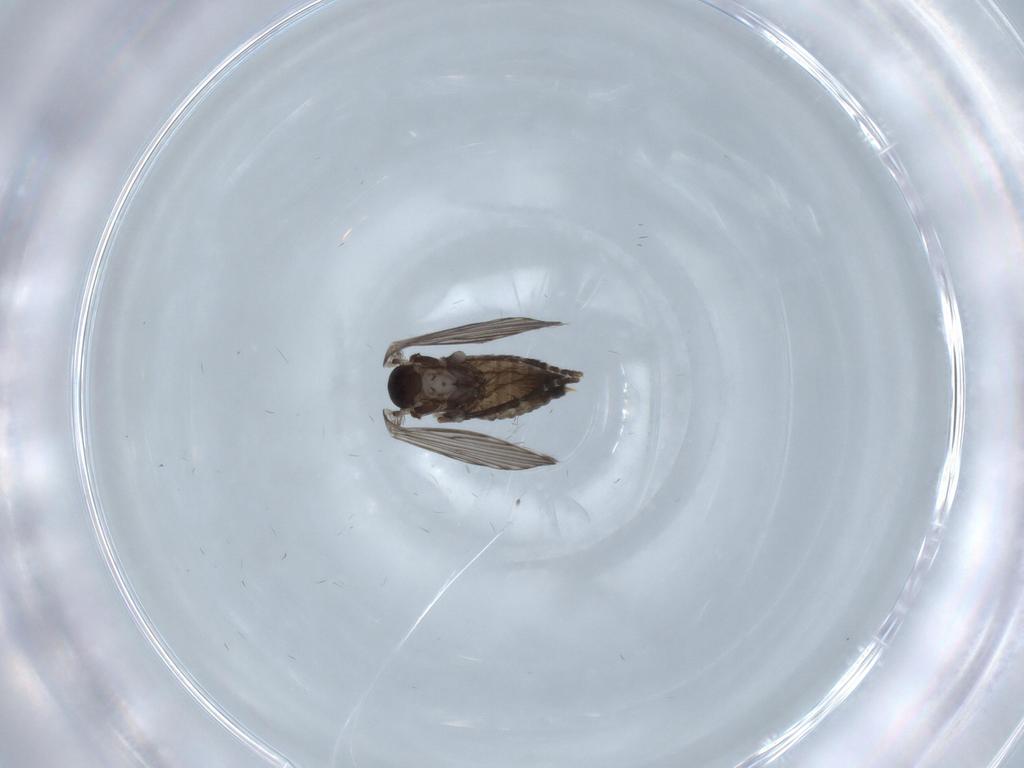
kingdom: Animalia
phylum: Arthropoda
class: Insecta
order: Diptera
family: Psychodidae
